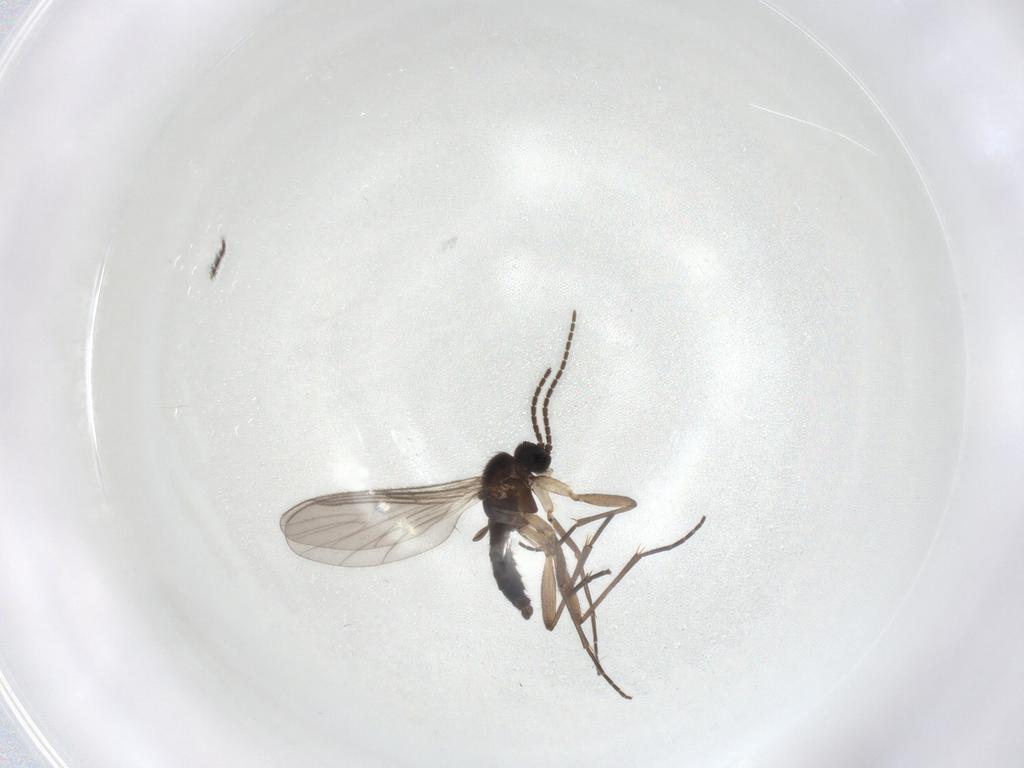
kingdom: Animalia
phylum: Arthropoda
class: Insecta
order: Diptera
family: Sciaridae
